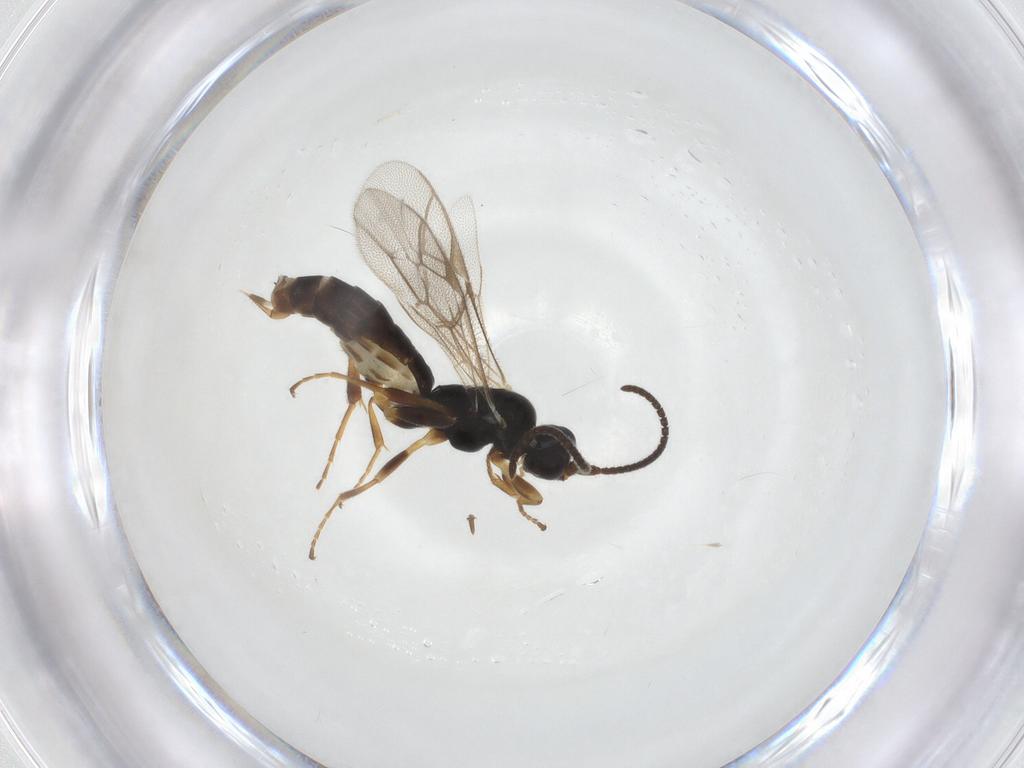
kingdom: Animalia
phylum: Arthropoda
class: Insecta
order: Hymenoptera
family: Ichneumonidae
